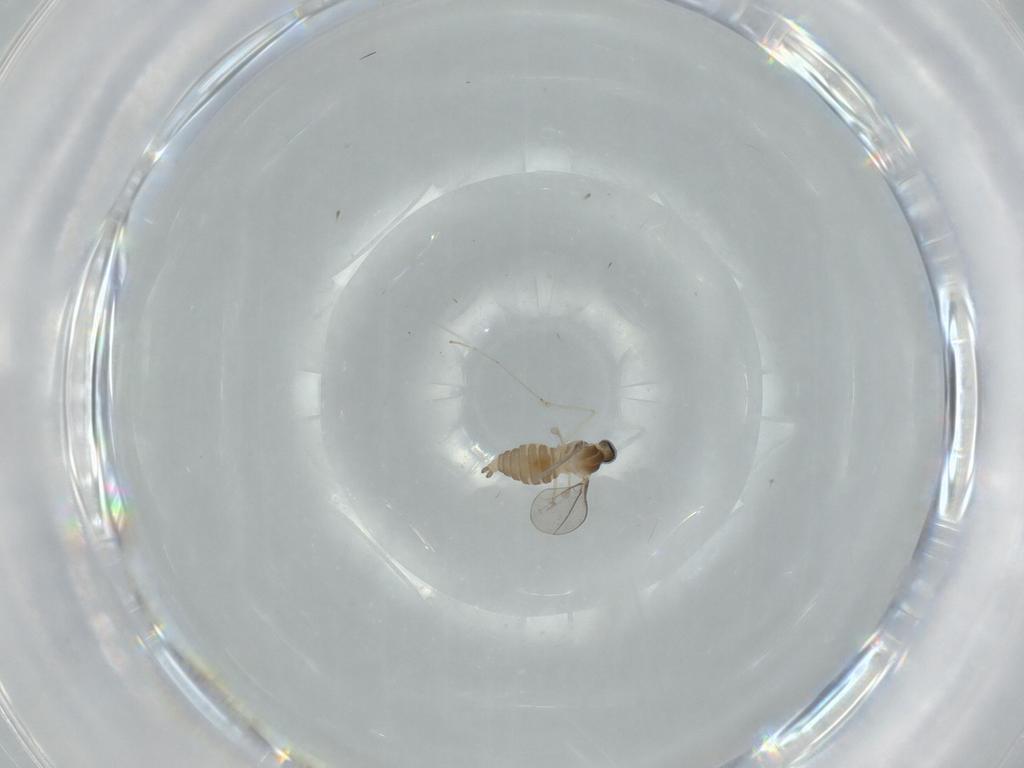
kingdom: Animalia
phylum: Arthropoda
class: Insecta
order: Diptera
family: Cecidomyiidae
